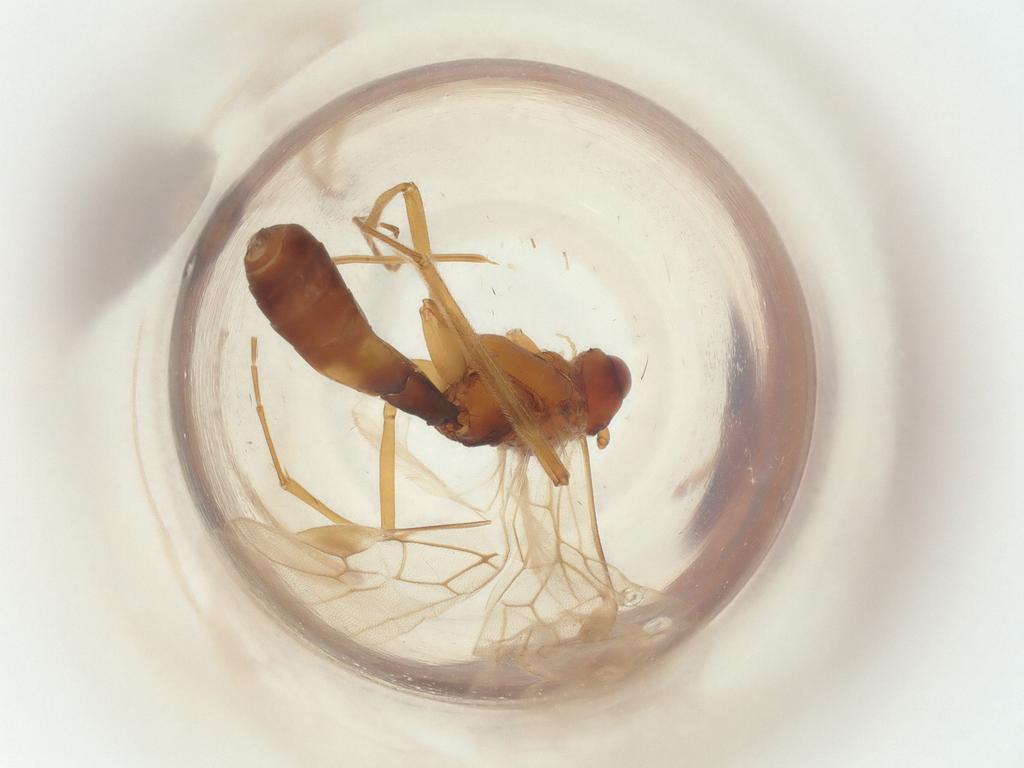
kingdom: Animalia
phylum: Arthropoda
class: Insecta
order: Hymenoptera
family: Braconidae
